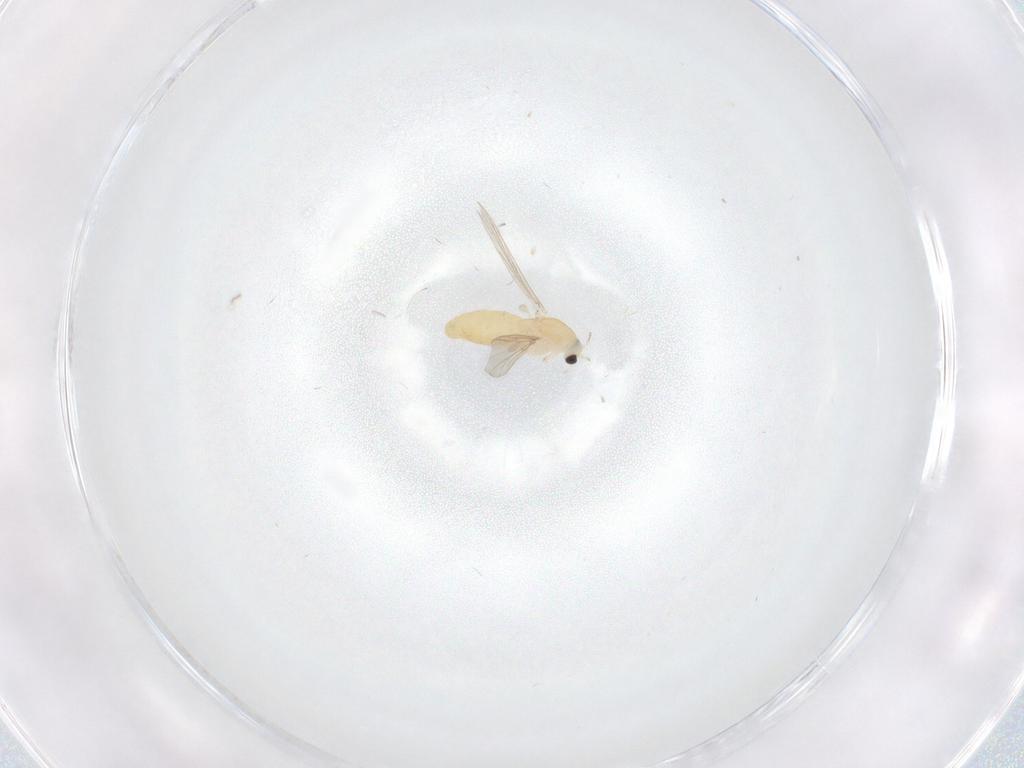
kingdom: Animalia
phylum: Arthropoda
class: Insecta
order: Diptera
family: Chironomidae
